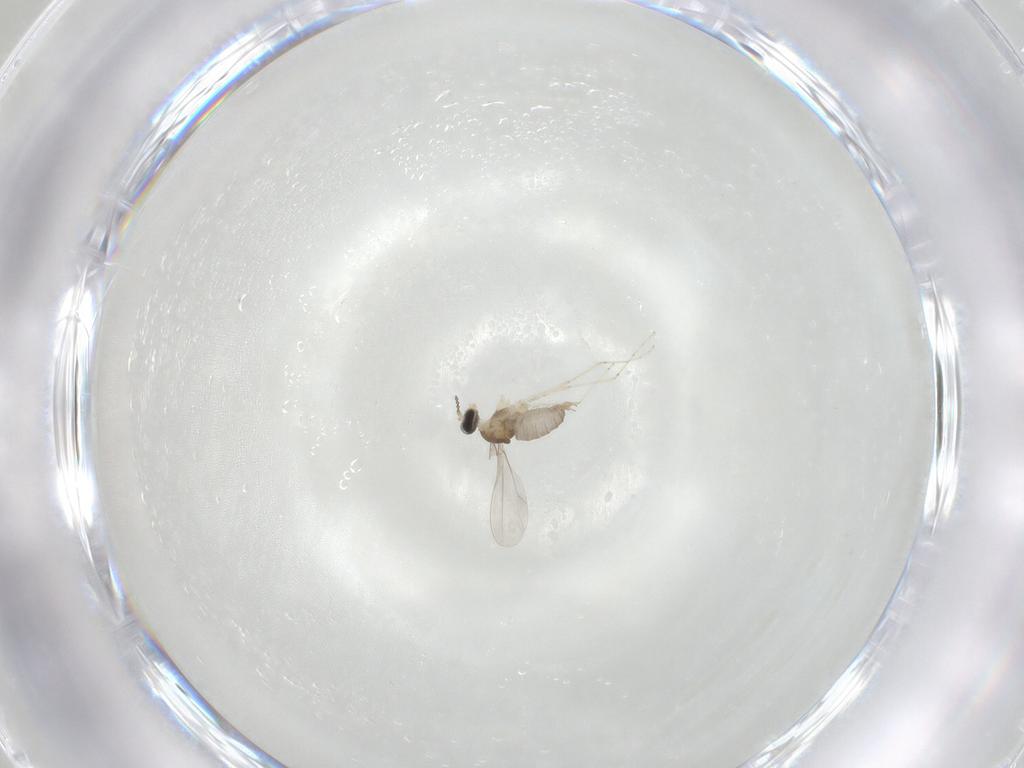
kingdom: Animalia
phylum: Arthropoda
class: Insecta
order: Diptera
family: Cecidomyiidae
